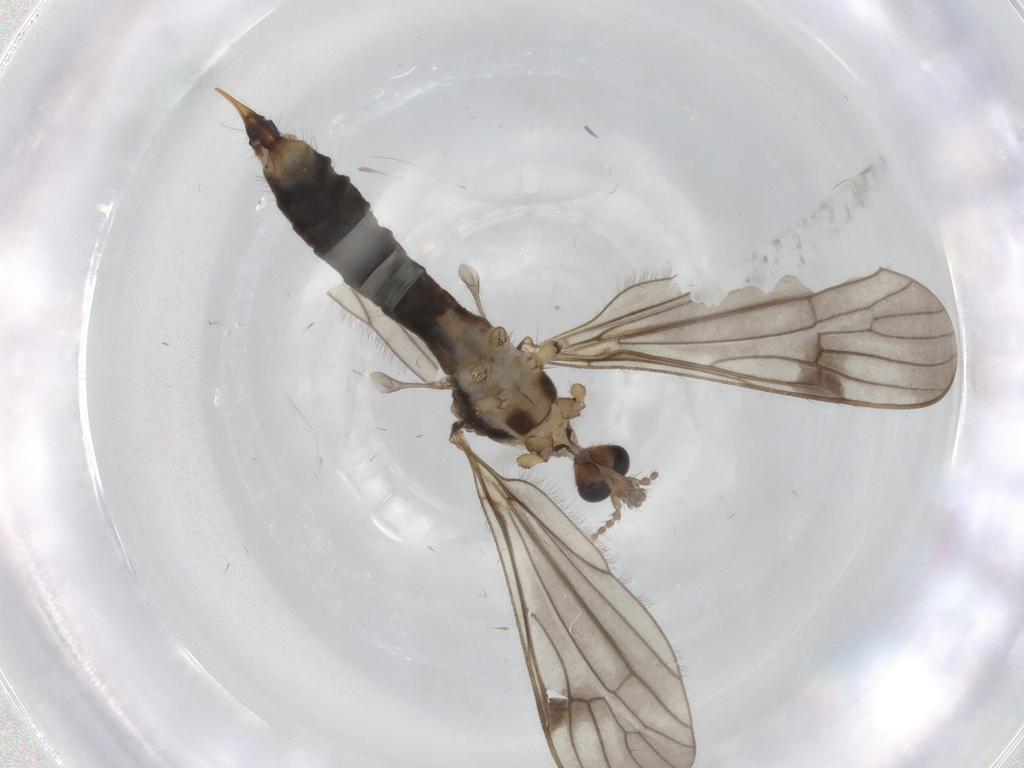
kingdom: Animalia
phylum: Arthropoda
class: Insecta
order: Diptera
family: Limoniidae
